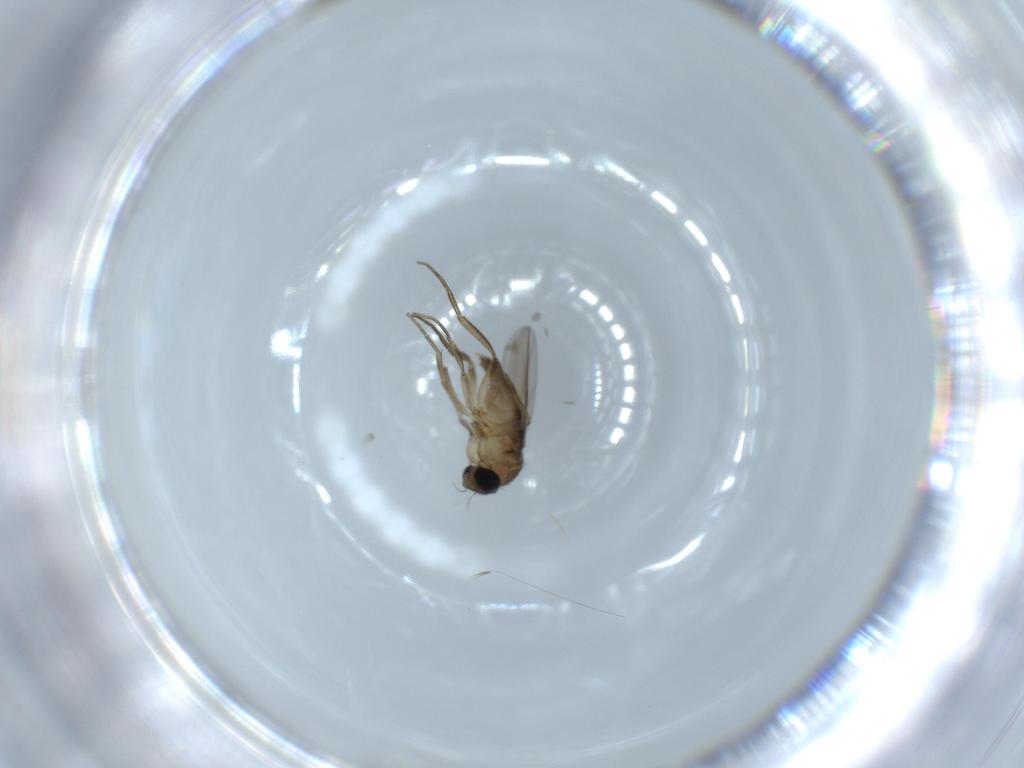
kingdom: Animalia
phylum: Arthropoda
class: Insecta
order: Diptera
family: Phoridae
